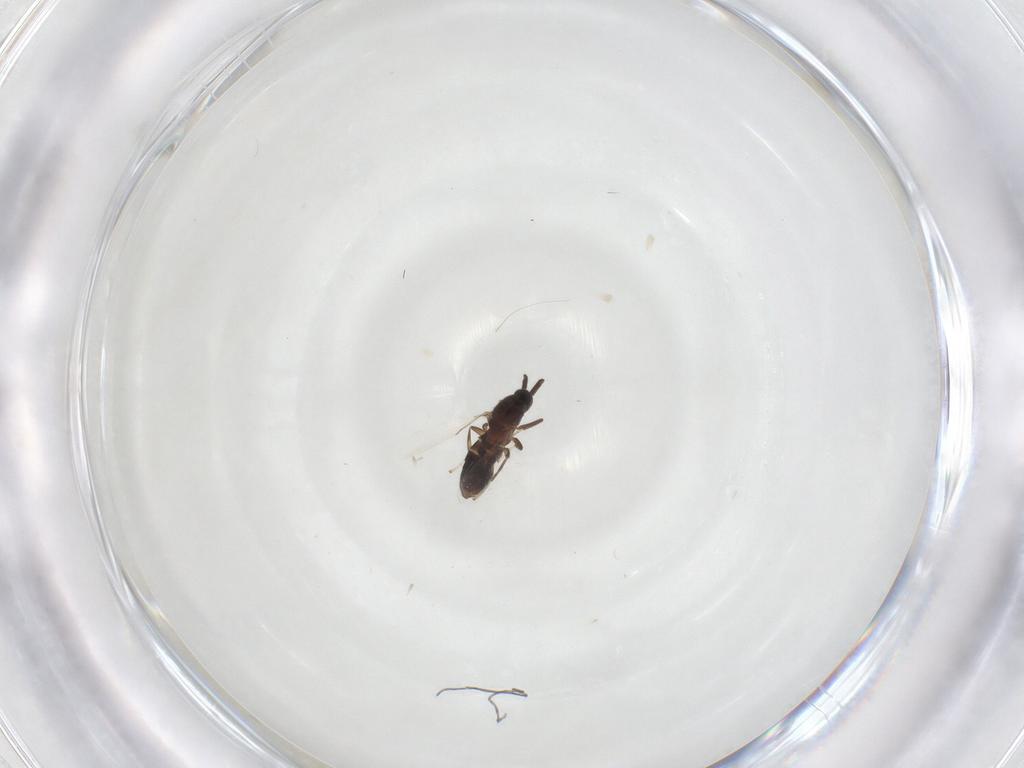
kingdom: Animalia
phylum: Arthropoda
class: Insecta
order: Diptera
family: Scatopsidae
